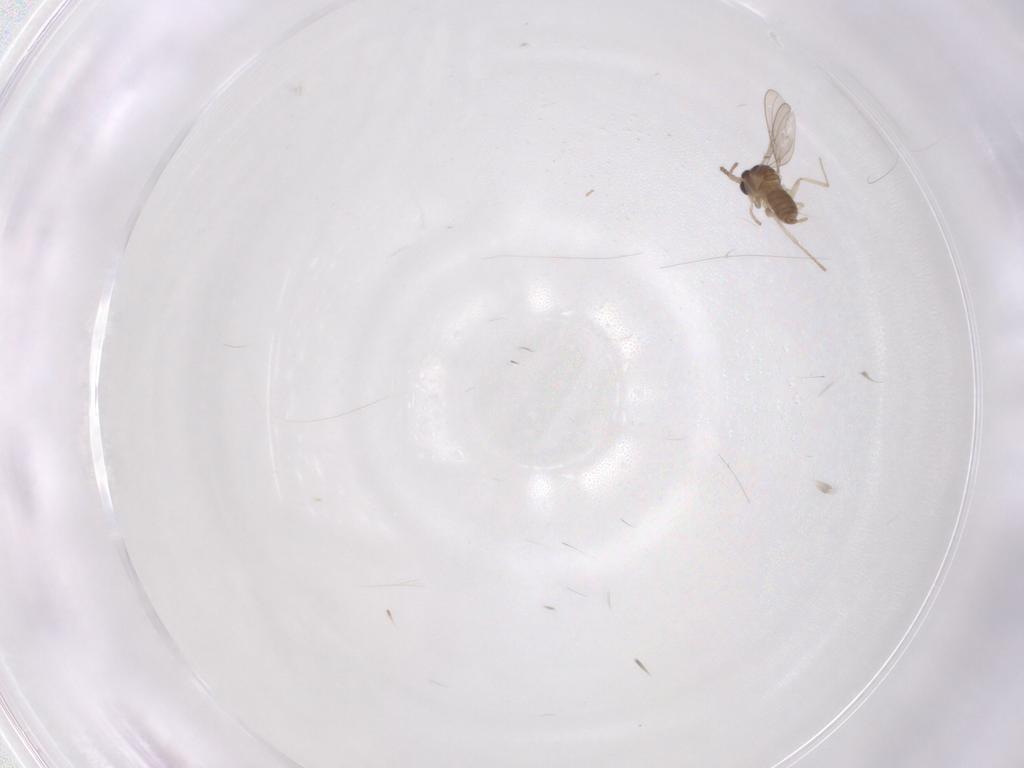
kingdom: Animalia
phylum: Arthropoda
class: Insecta
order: Diptera
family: Cecidomyiidae
